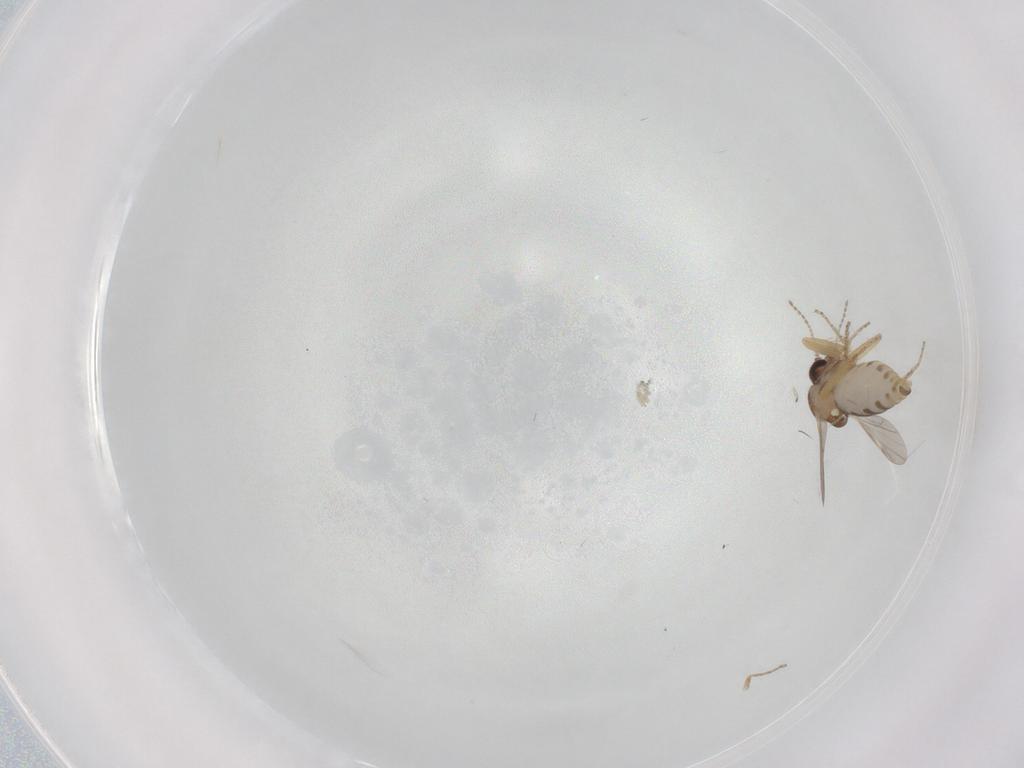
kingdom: Animalia
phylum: Arthropoda
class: Insecta
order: Diptera
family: Ceratopogonidae
